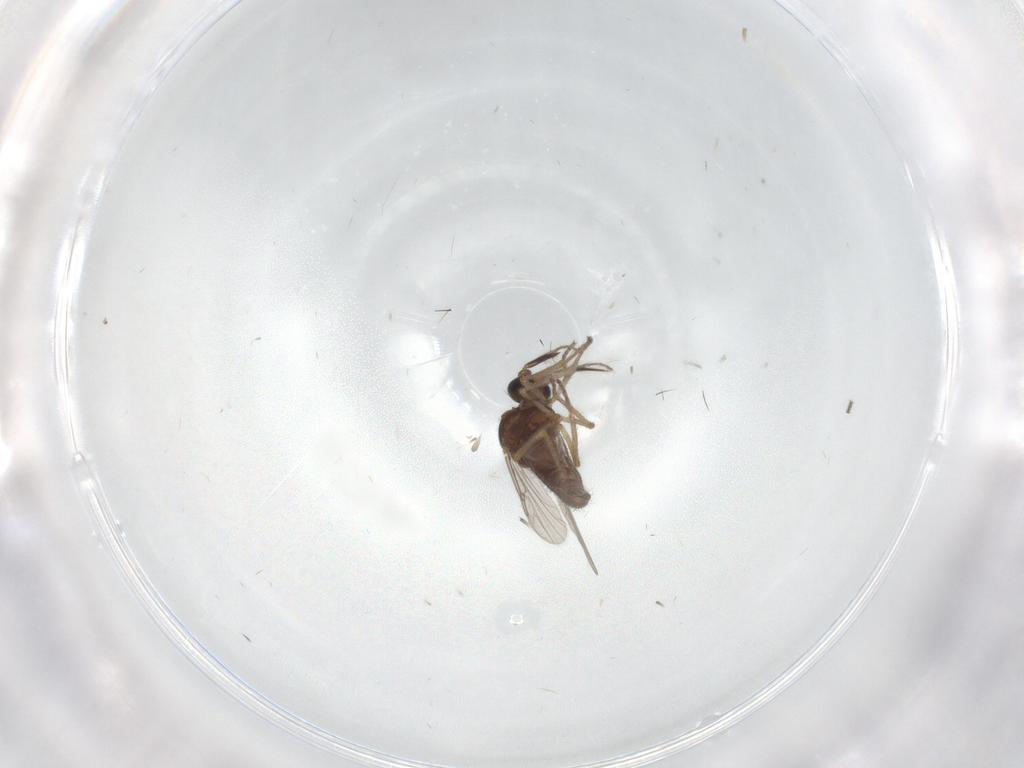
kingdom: Animalia
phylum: Arthropoda
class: Insecta
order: Diptera
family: Ceratopogonidae
